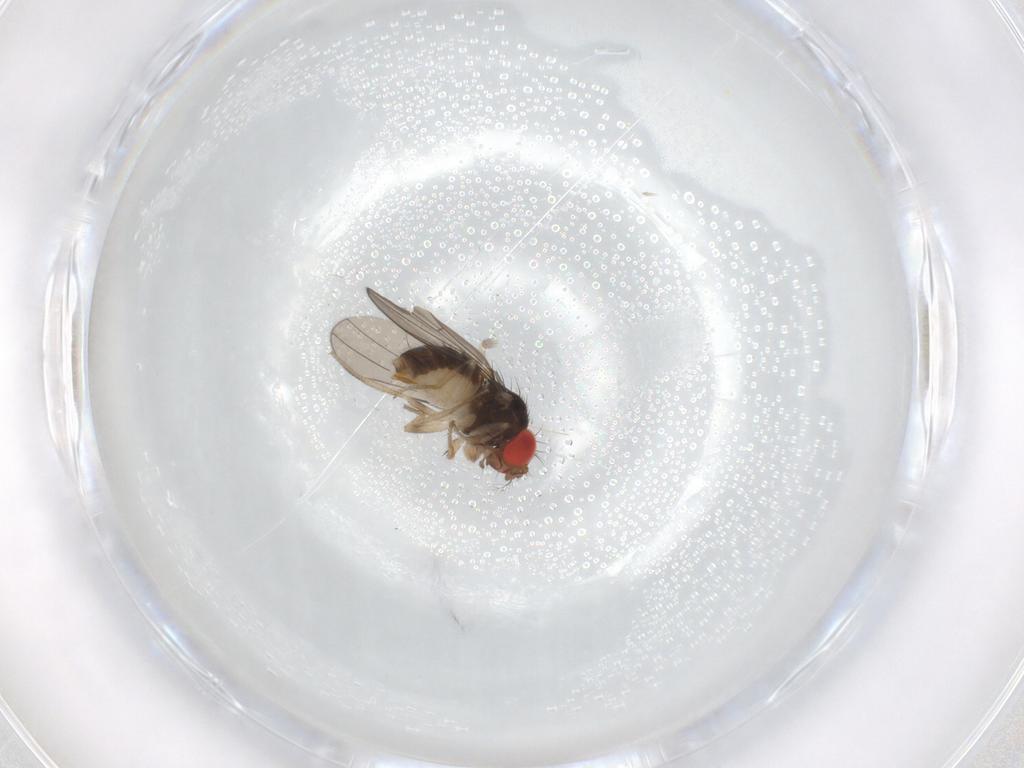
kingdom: Animalia
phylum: Arthropoda
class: Insecta
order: Diptera
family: Drosophilidae
